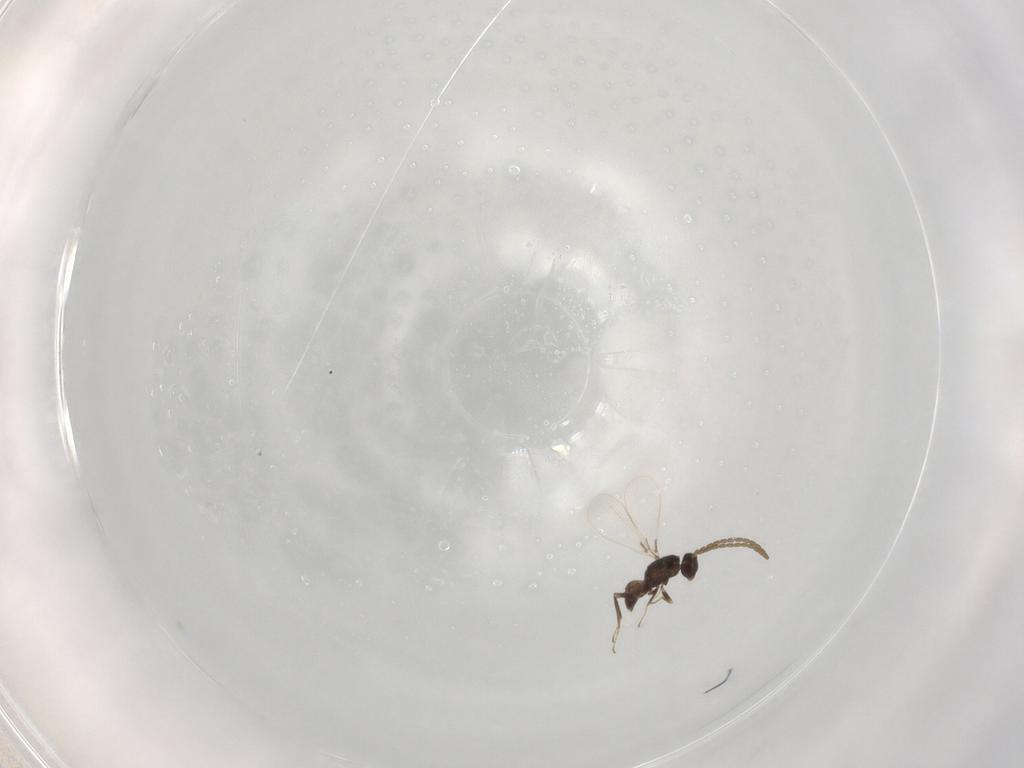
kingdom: Animalia
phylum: Arthropoda
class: Insecta
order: Hymenoptera
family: Mymaridae
